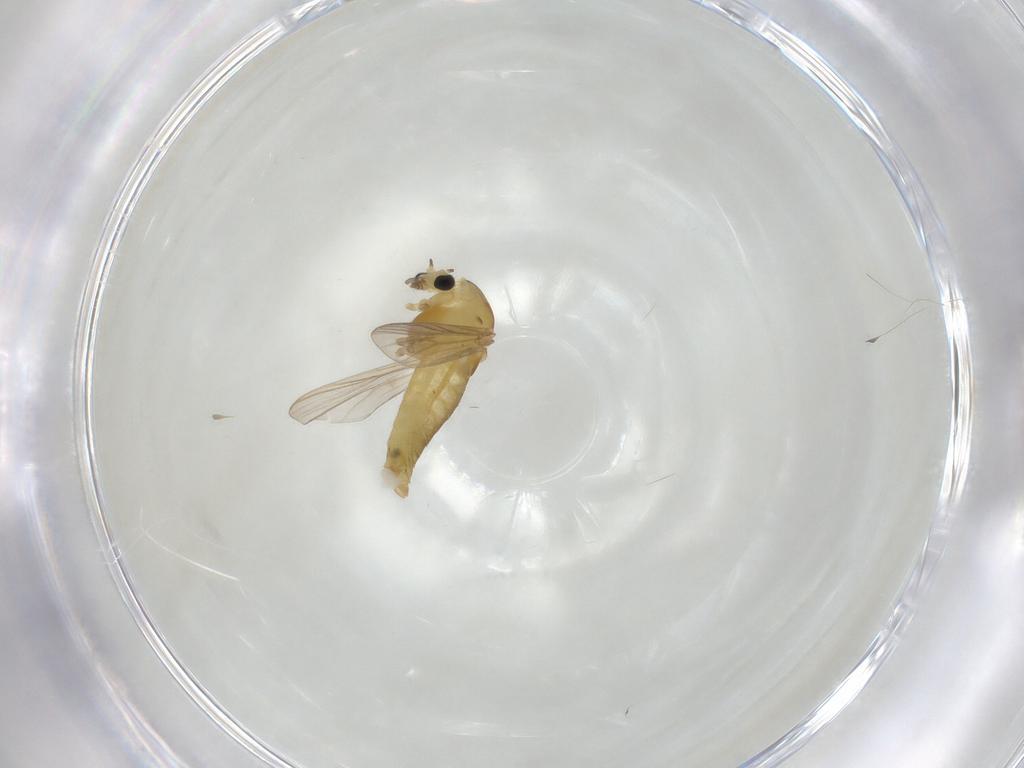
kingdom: Animalia
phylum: Arthropoda
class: Insecta
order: Diptera
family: Chironomidae
